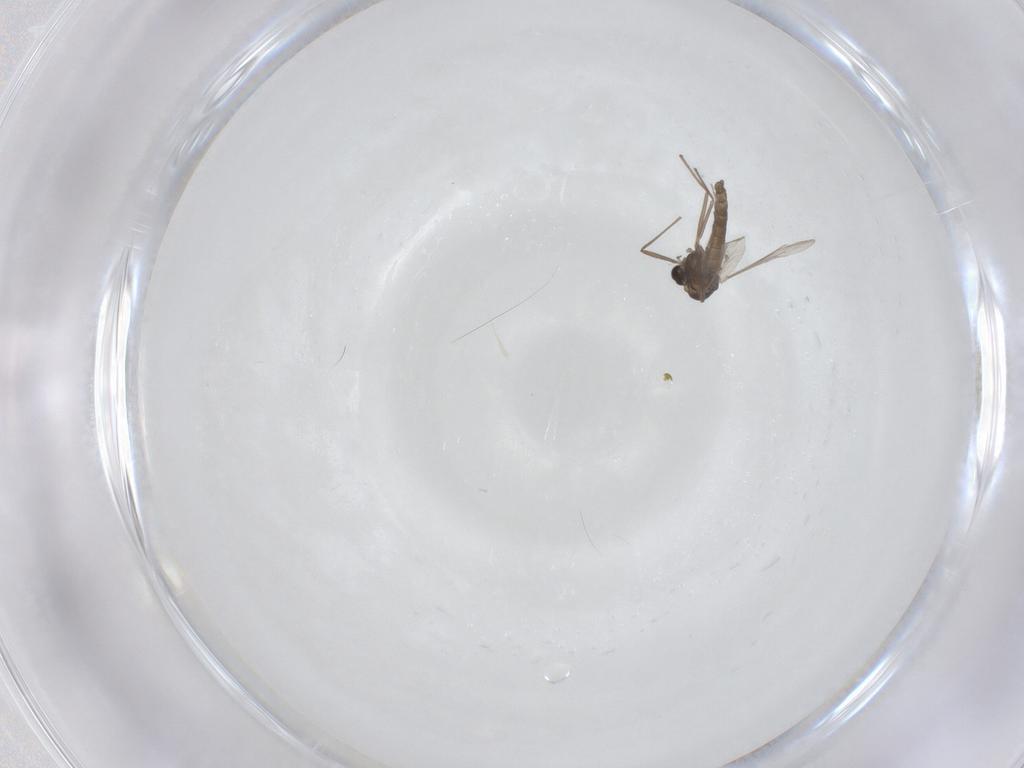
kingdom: Animalia
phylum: Arthropoda
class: Insecta
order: Diptera
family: Chironomidae
